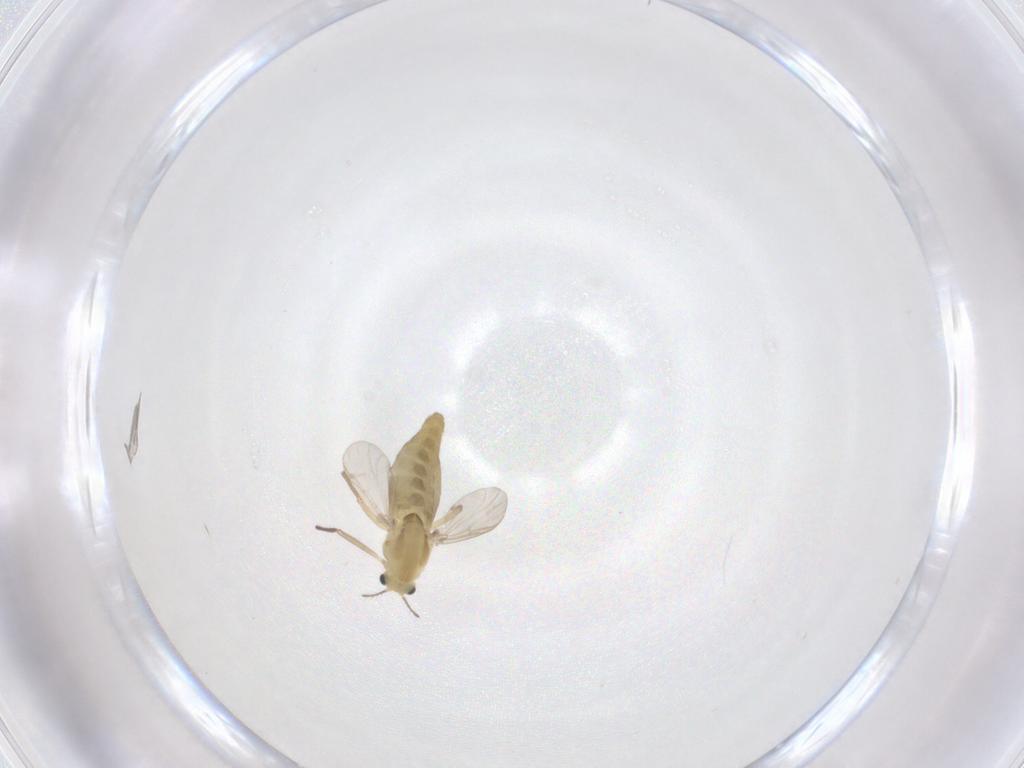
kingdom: Animalia
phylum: Arthropoda
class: Insecta
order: Diptera
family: Chironomidae
